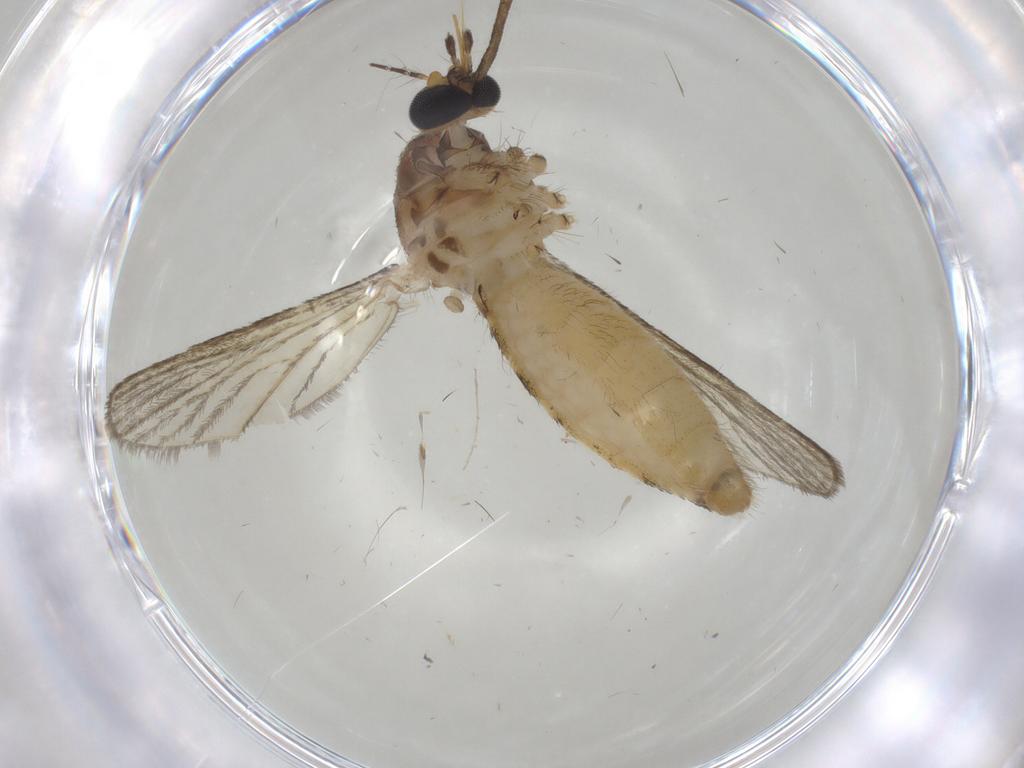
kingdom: Animalia
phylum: Arthropoda
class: Insecta
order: Diptera
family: Culicidae
